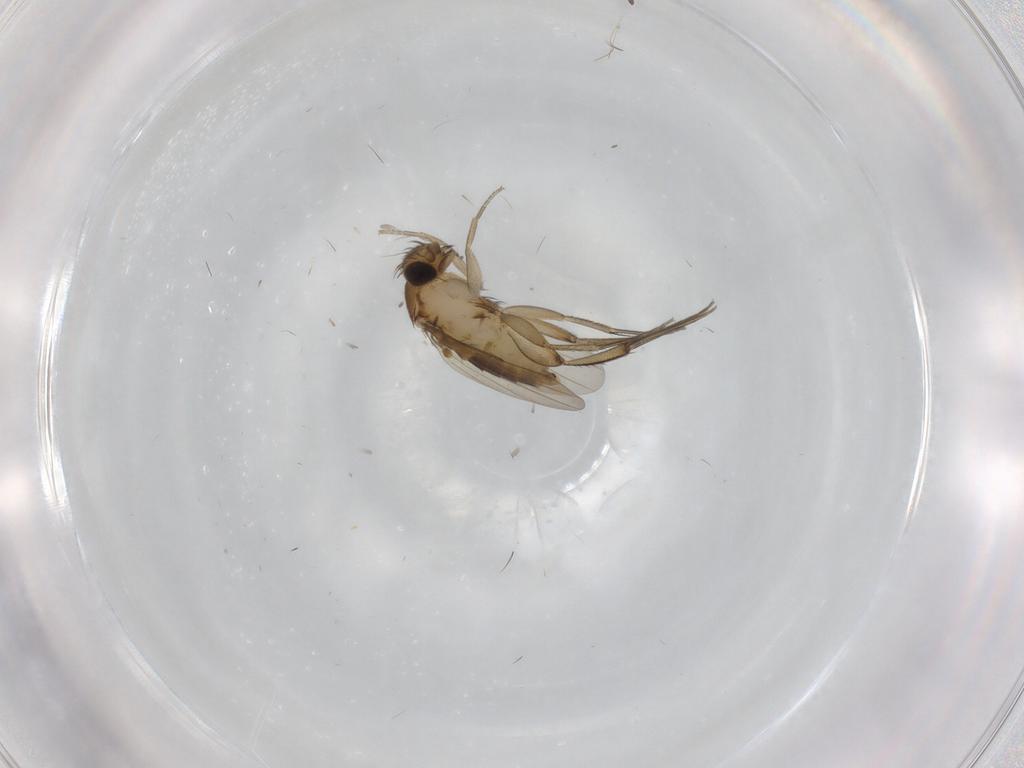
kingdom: Animalia
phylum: Arthropoda
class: Insecta
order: Diptera
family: Phoridae
